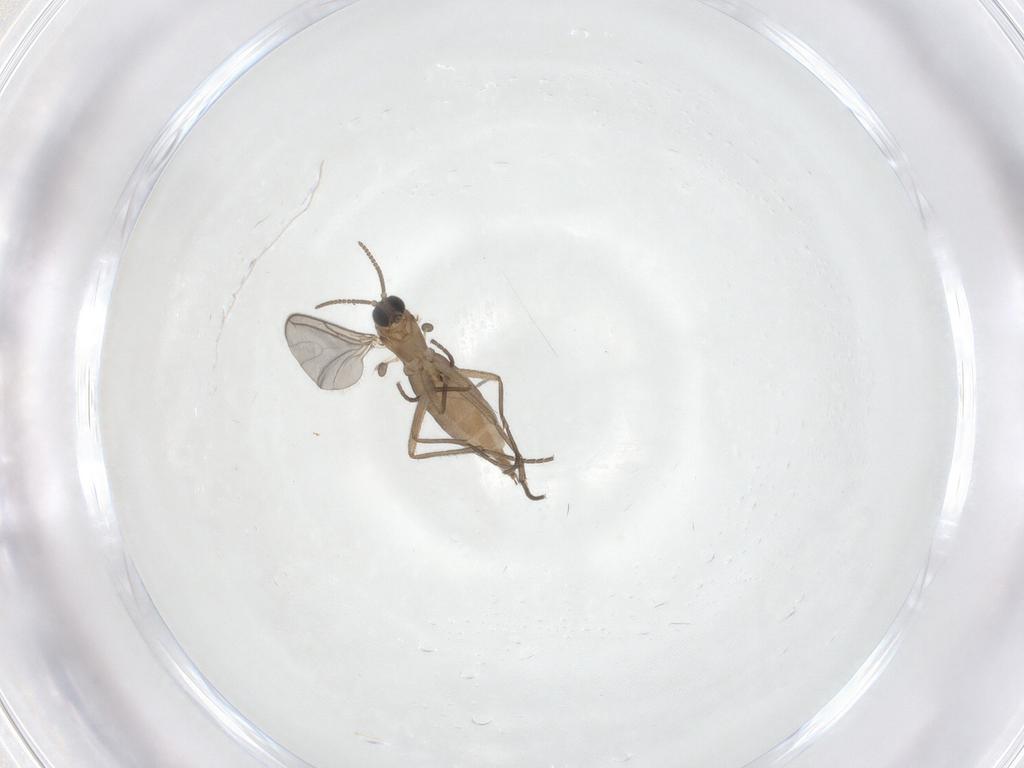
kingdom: Animalia
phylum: Arthropoda
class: Insecta
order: Diptera
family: Sciaridae
